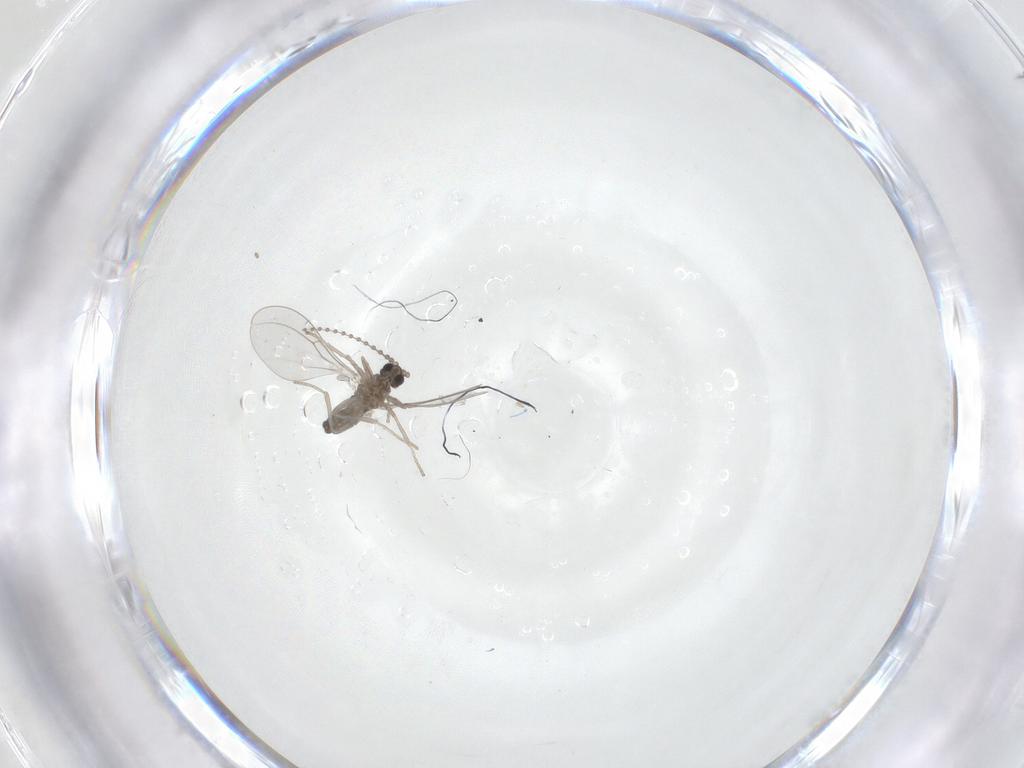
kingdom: Animalia
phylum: Arthropoda
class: Insecta
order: Diptera
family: Cecidomyiidae
